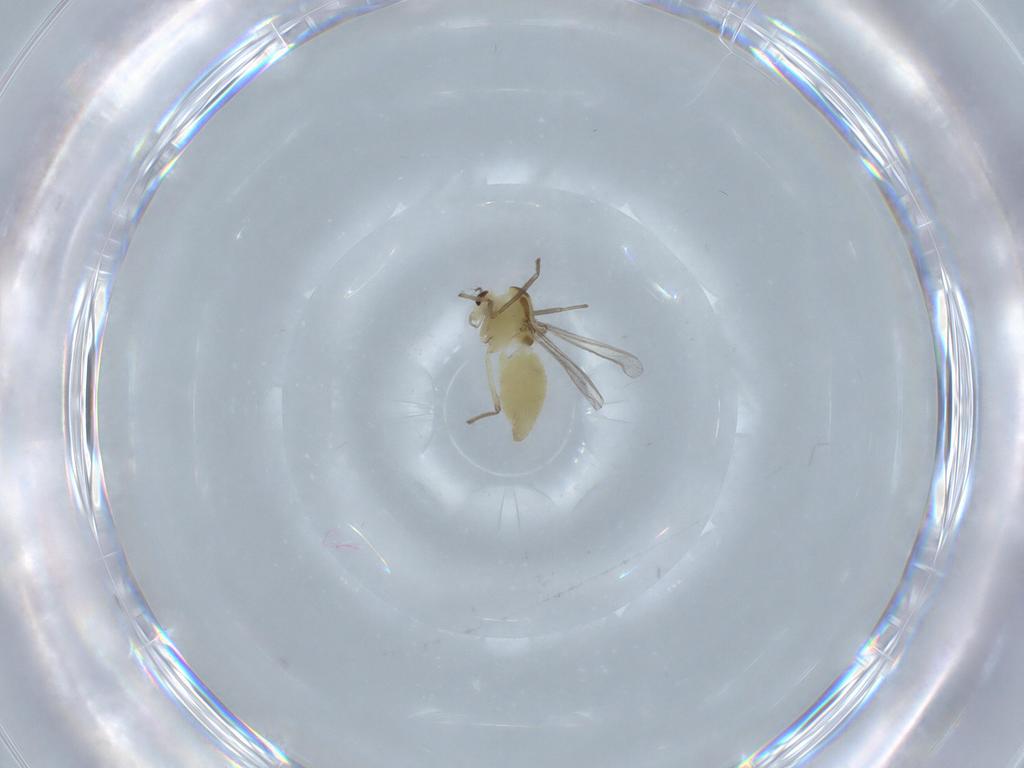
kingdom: Animalia
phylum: Arthropoda
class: Insecta
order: Diptera
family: Chironomidae
